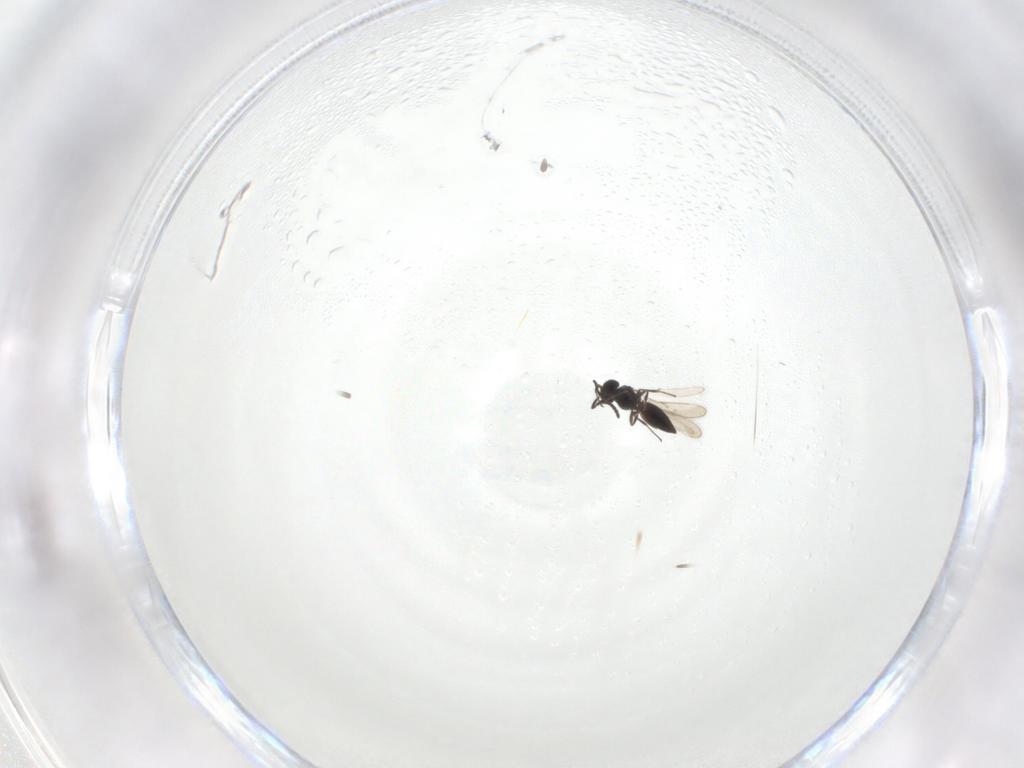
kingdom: Animalia
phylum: Arthropoda
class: Insecta
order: Hymenoptera
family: Scelionidae
